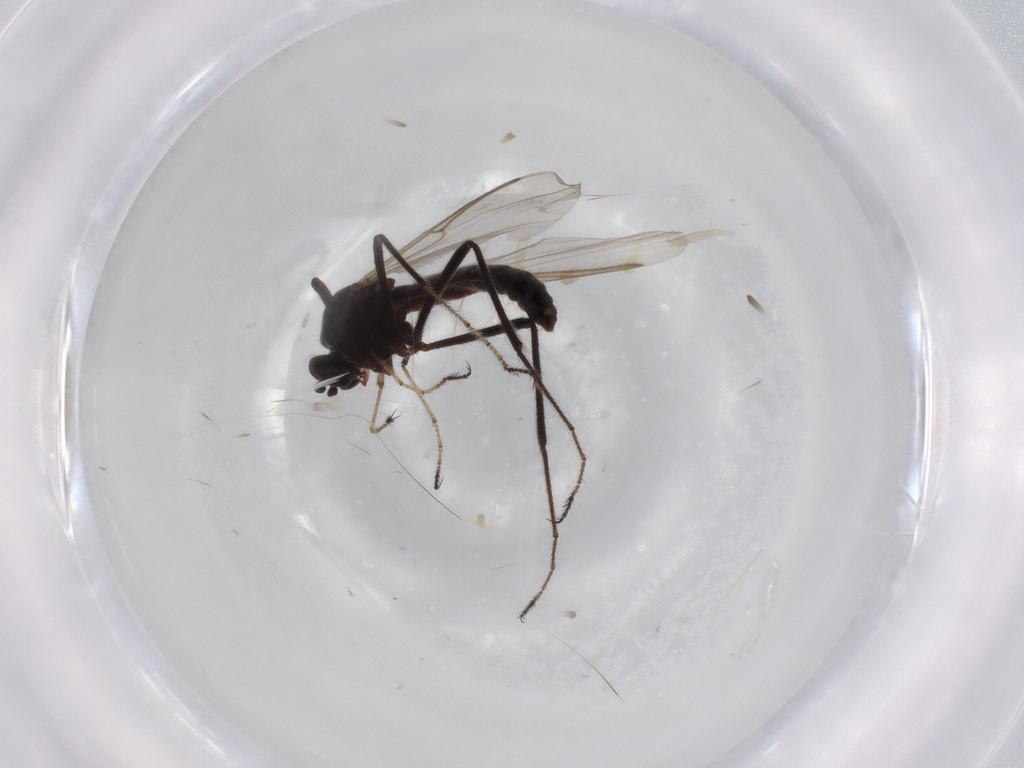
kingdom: Animalia
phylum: Arthropoda
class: Insecta
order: Diptera
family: Ceratopogonidae
